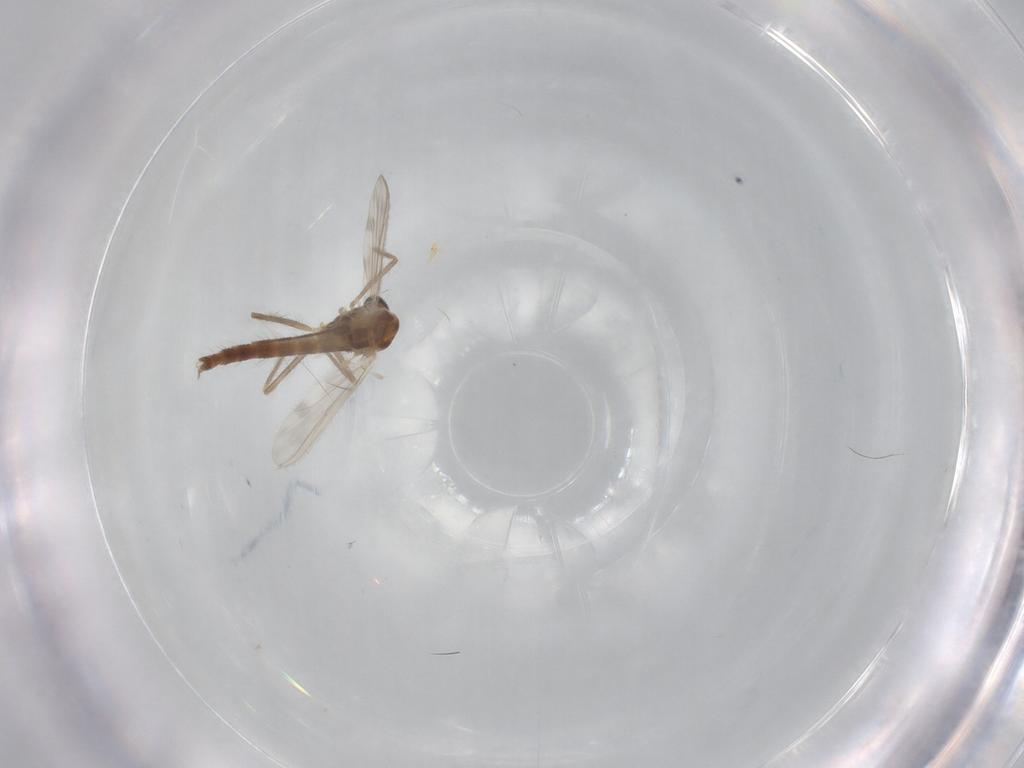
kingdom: Animalia
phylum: Arthropoda
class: Insecta
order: Diptera
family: Chironomidae
